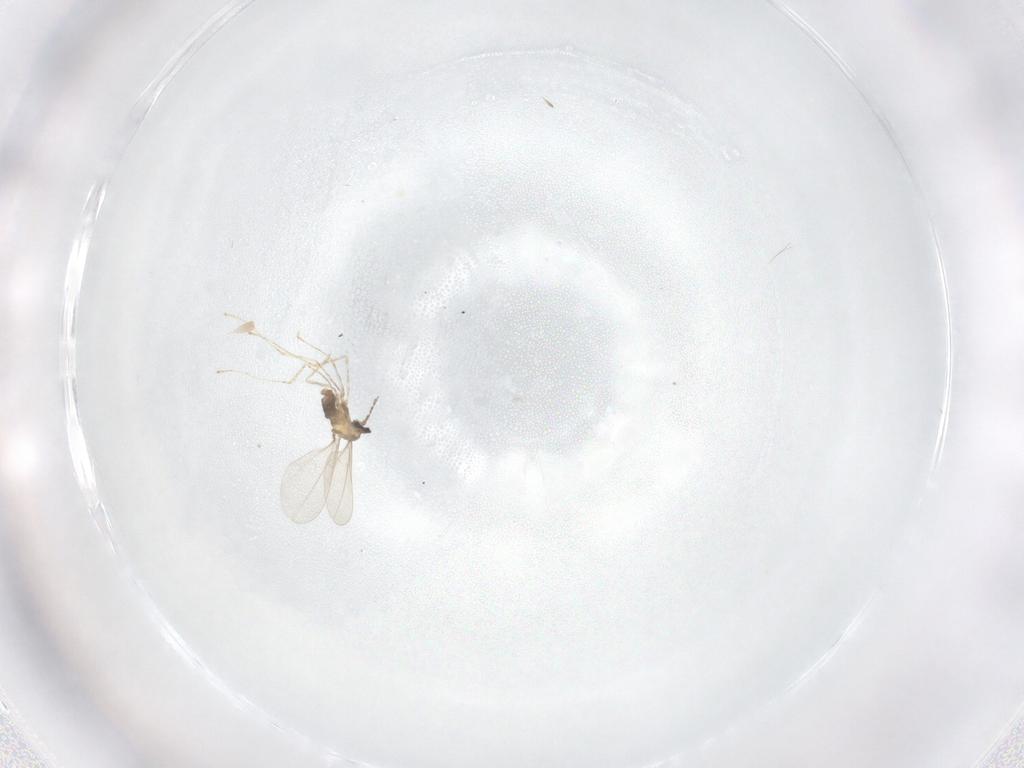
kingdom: Animalia
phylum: Arthropoda
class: Insecta
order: Diptera
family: Cecidomyiidae
